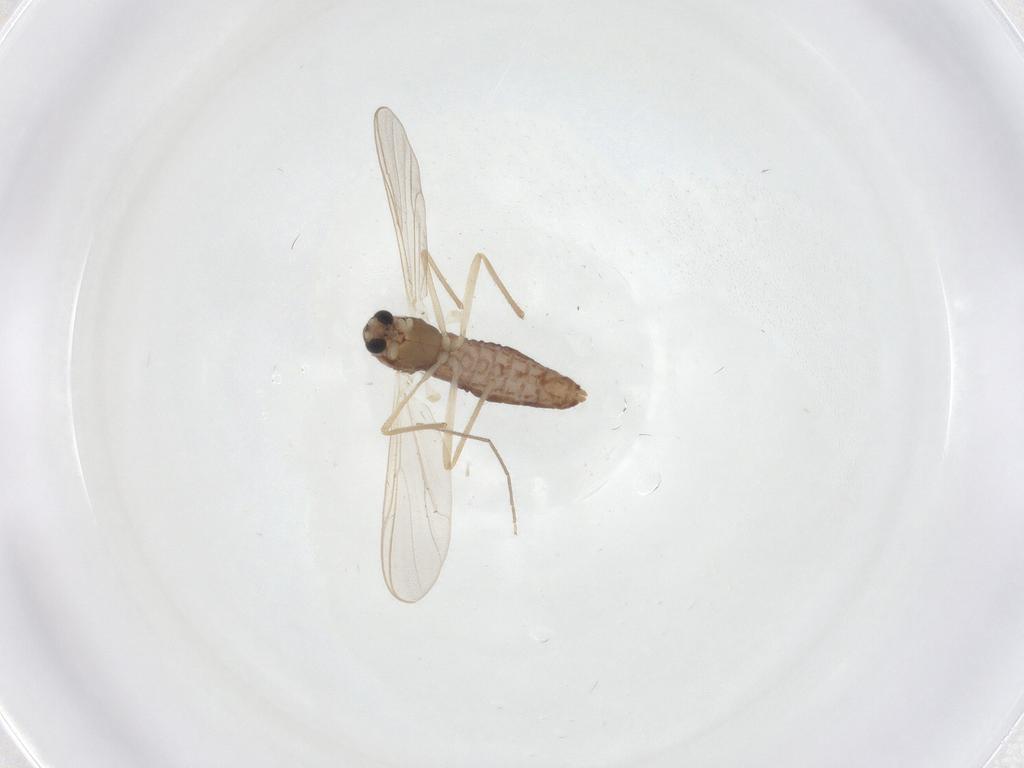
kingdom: Animalia
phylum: Arthropoda
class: Insecta
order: Diptera
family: Chironomidae
